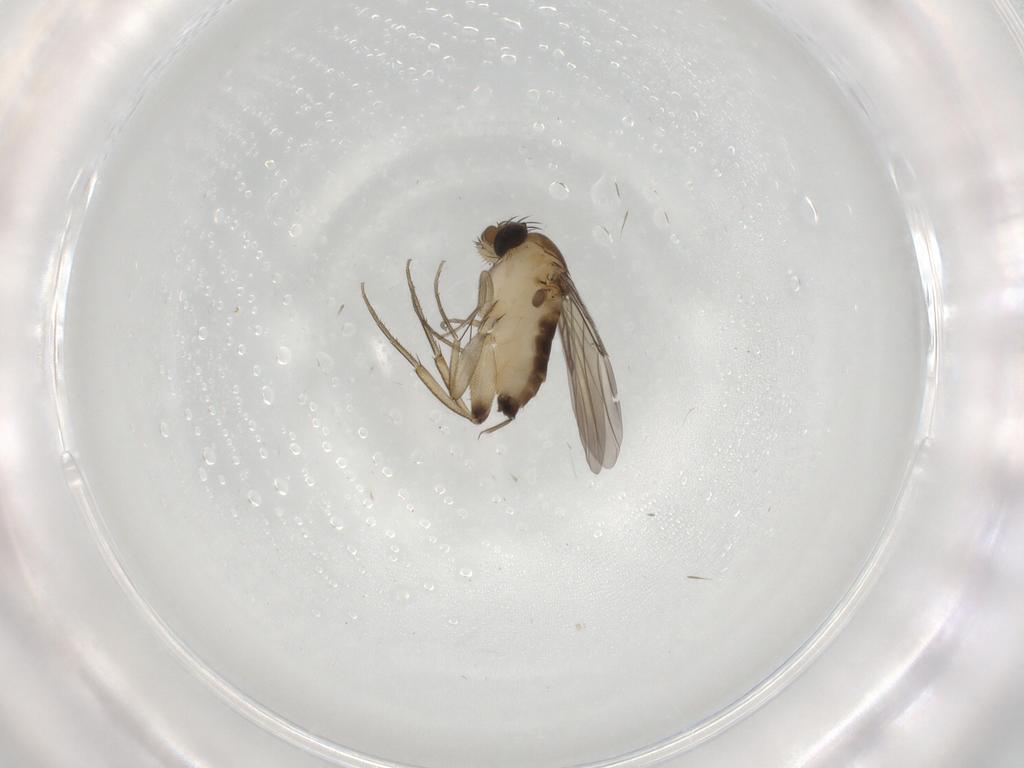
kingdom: Animalia
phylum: Arthropoda
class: Insecta
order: Diptera
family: Phoridae
